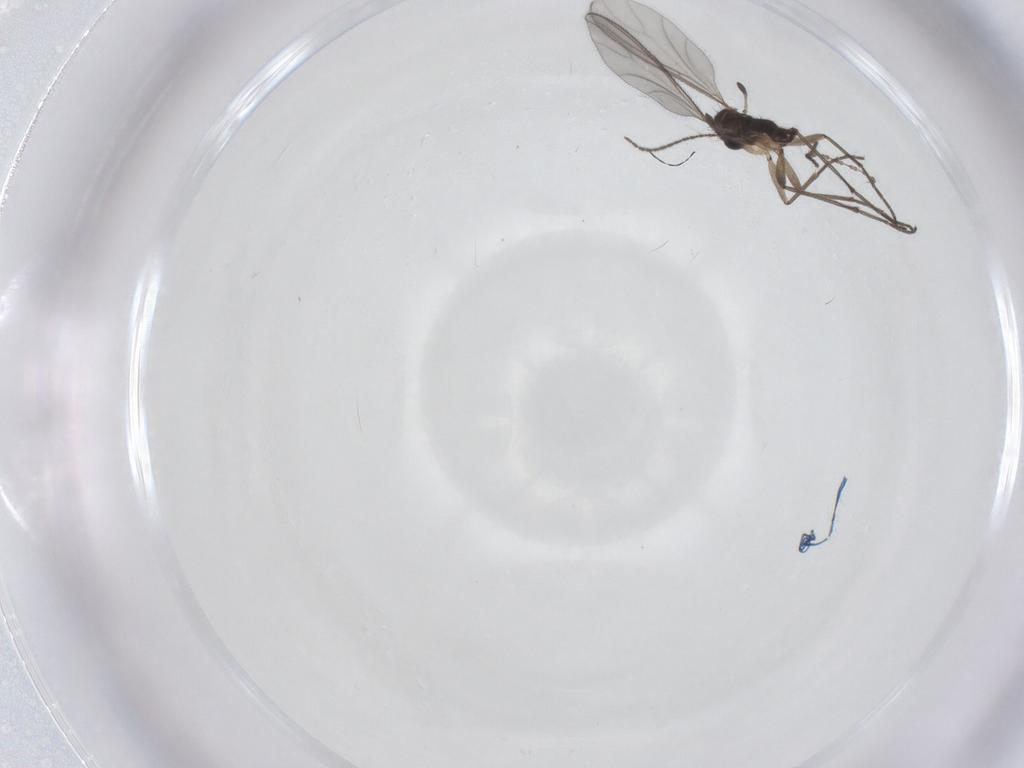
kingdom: Animalia
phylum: Arthropoda
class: Insecta
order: Diptera
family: Sciaridae
